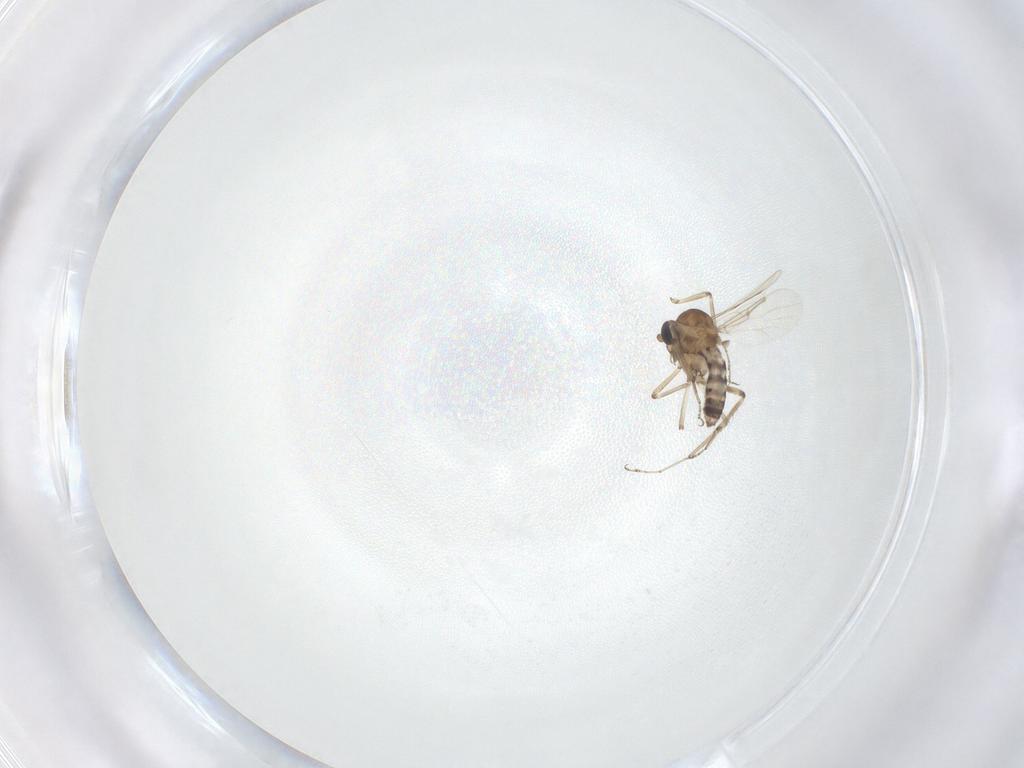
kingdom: Animalia
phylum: Arthropoda
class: Insecta
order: Diptera
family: Ceratopogonidae
